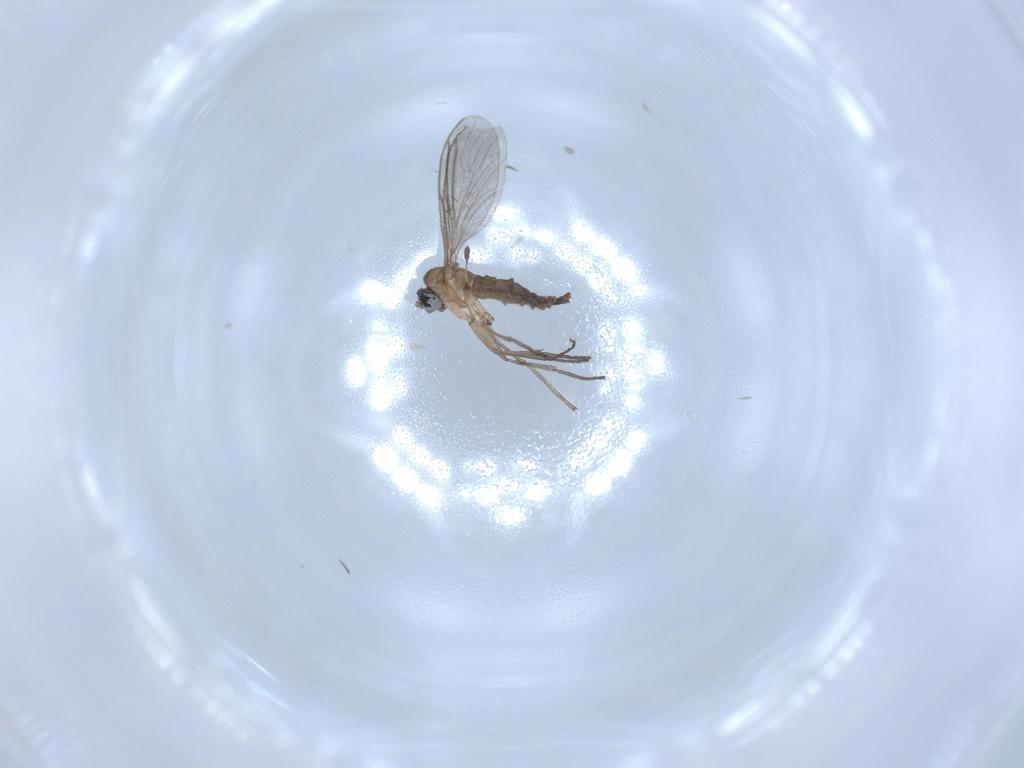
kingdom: Animalia
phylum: Arthropoda
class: Insecta
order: Diptera
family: Sciaridae
